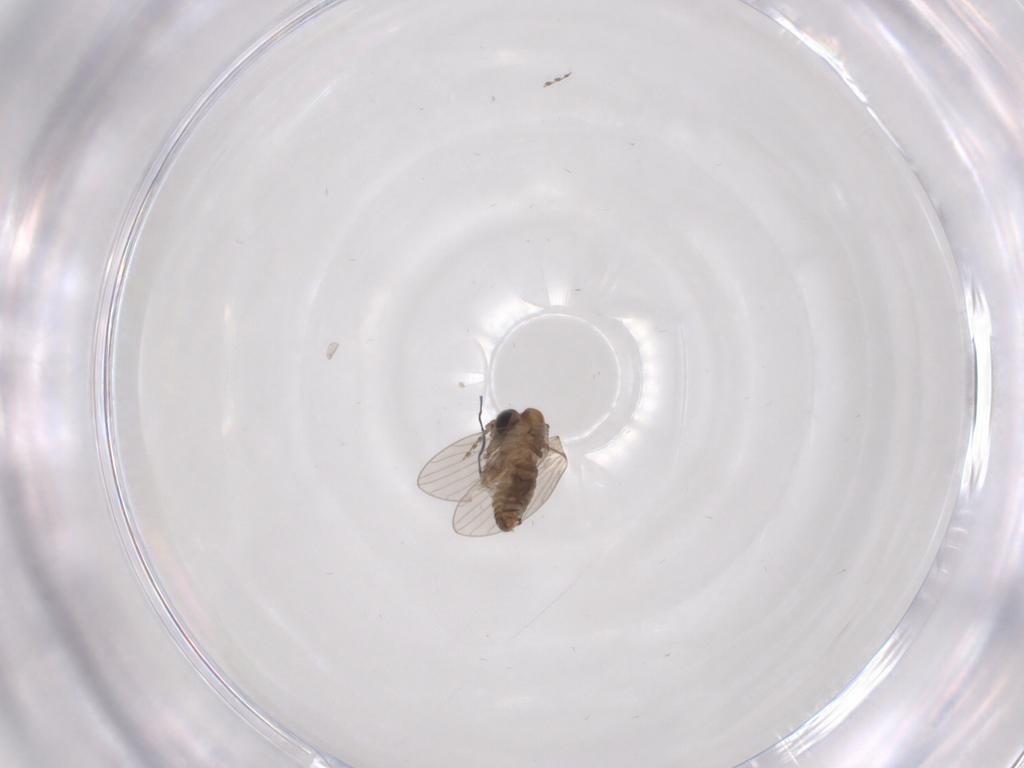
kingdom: Animalia
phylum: Arthropoda
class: Insecta
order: Diptera
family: Psychodidae
